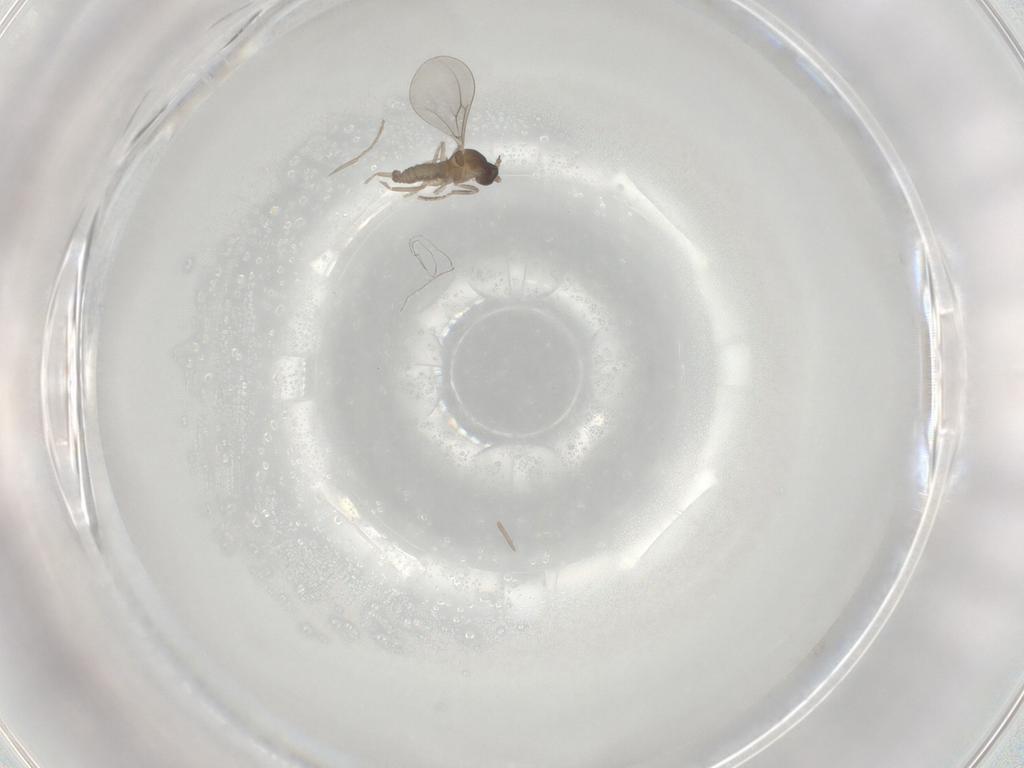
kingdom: Animalia
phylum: Arthropoda
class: Insecta
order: Diptera
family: Cecidomyiidae
